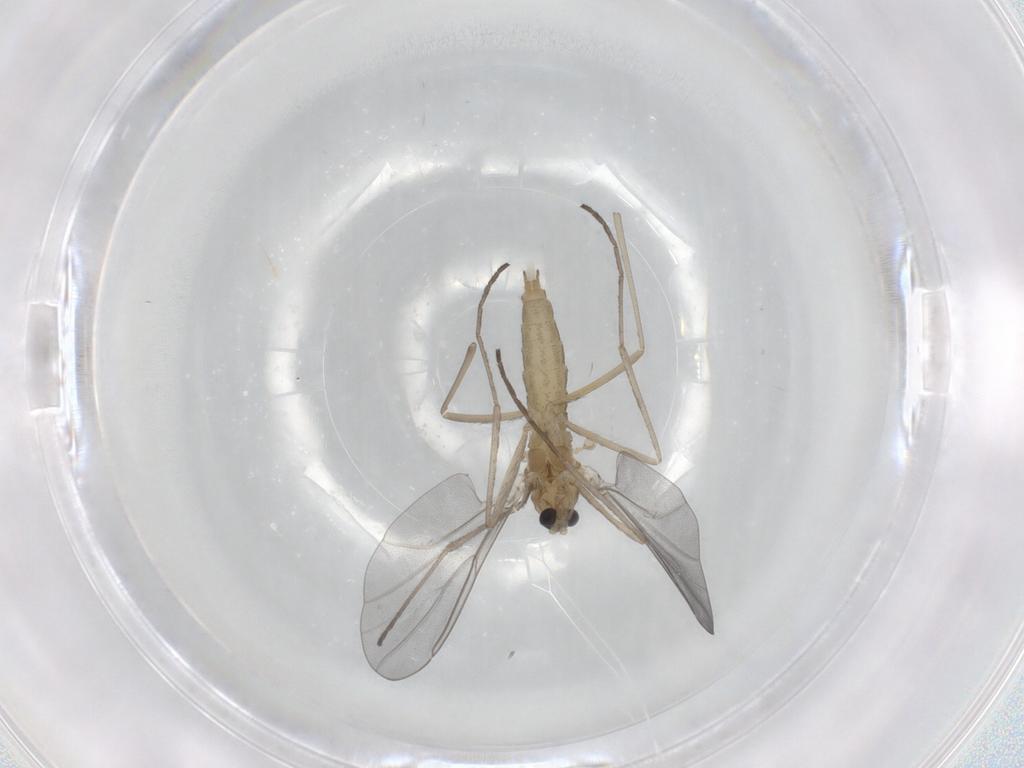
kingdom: Animalia
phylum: Arthropoda
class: Insecta
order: Diptera
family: Cecidomyiidae
